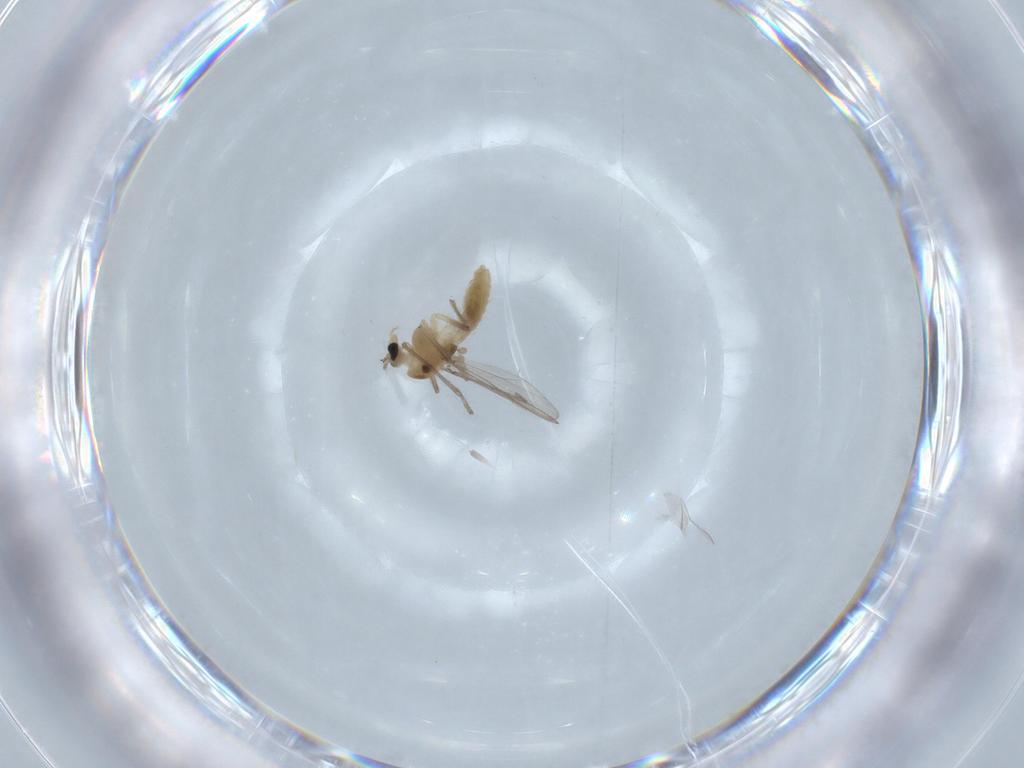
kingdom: Animalia
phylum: Arthropoda
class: Insecta
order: Diptera
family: Chironomidae
